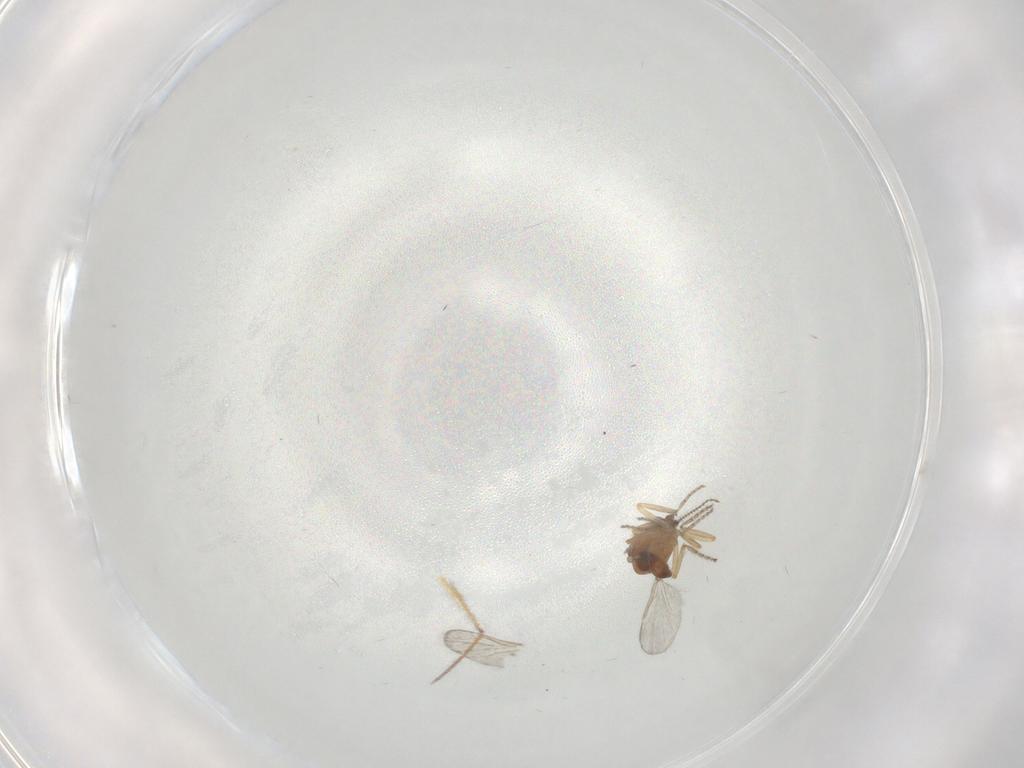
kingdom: Animalia
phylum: Arthropoda
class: Insecta
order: Diptera
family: Ceratopogonidae
